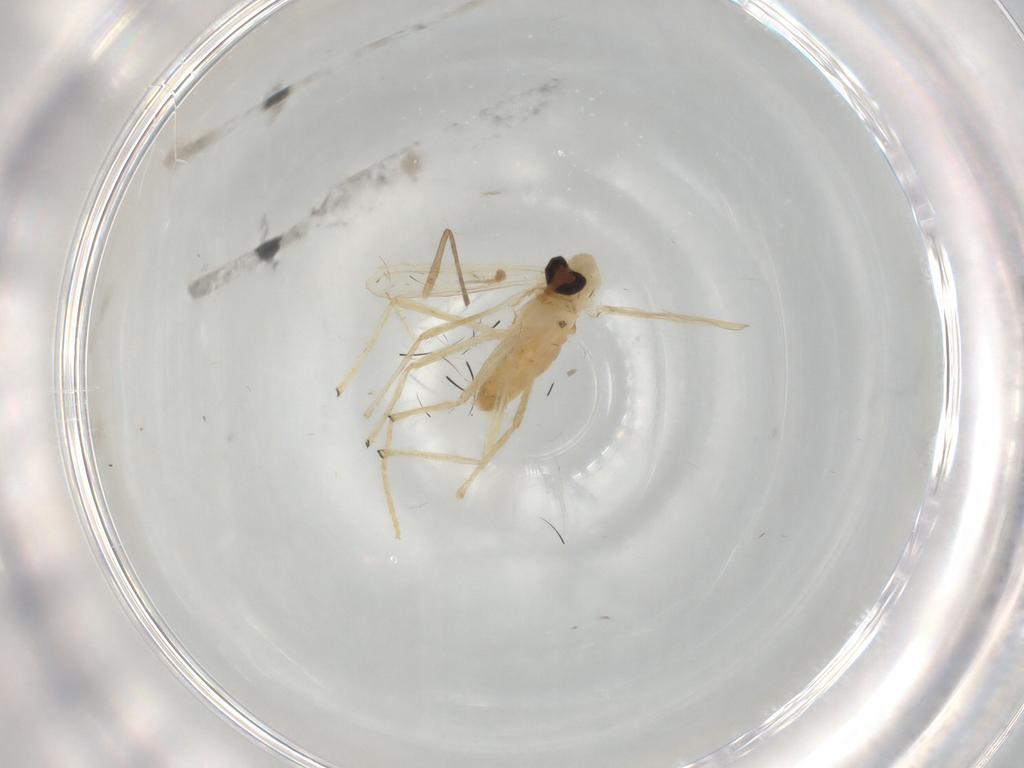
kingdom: Animalia
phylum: Arthropoda
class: Insecta
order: Diptera
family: Chironomidae
